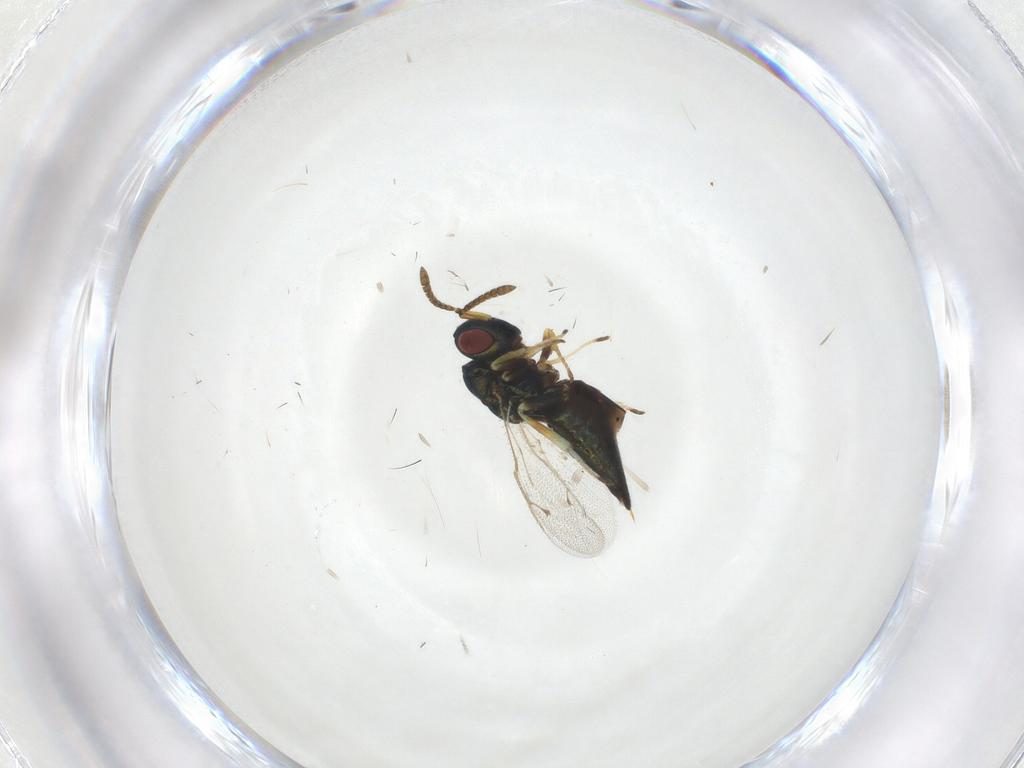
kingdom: Animalia
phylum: Arthropoda
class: Insecta
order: Hymenoptera
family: Pteromalidae
